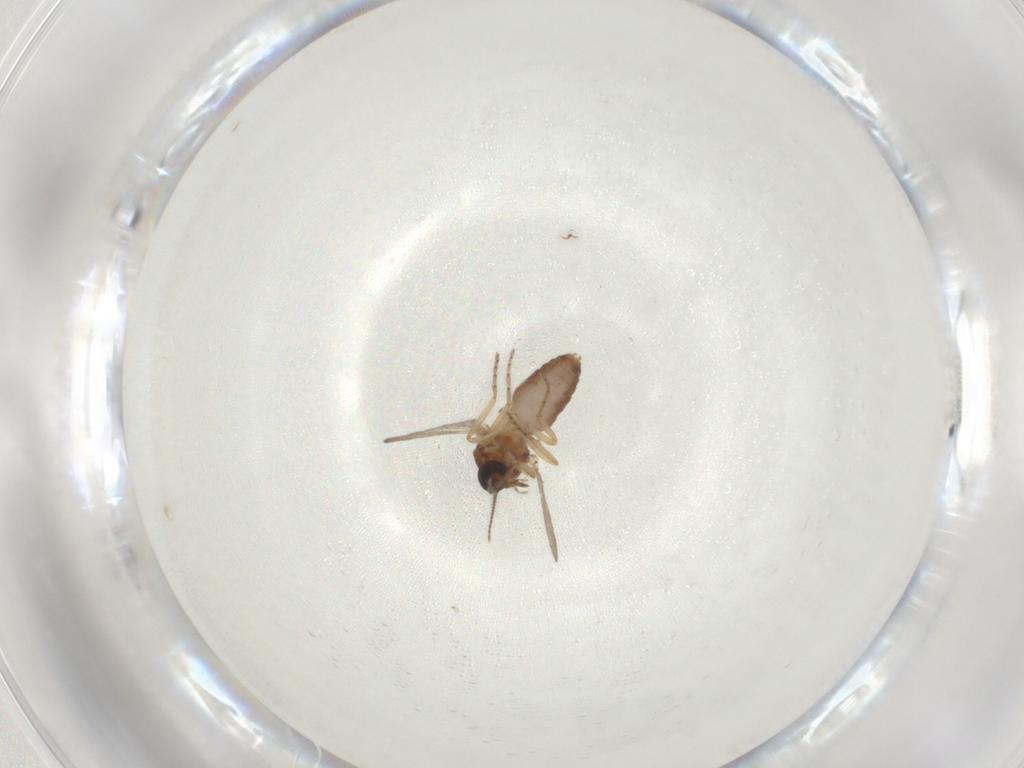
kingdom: Animalia
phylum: Arthropoda
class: Insecta
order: Diptera
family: Ceratopogonidae
